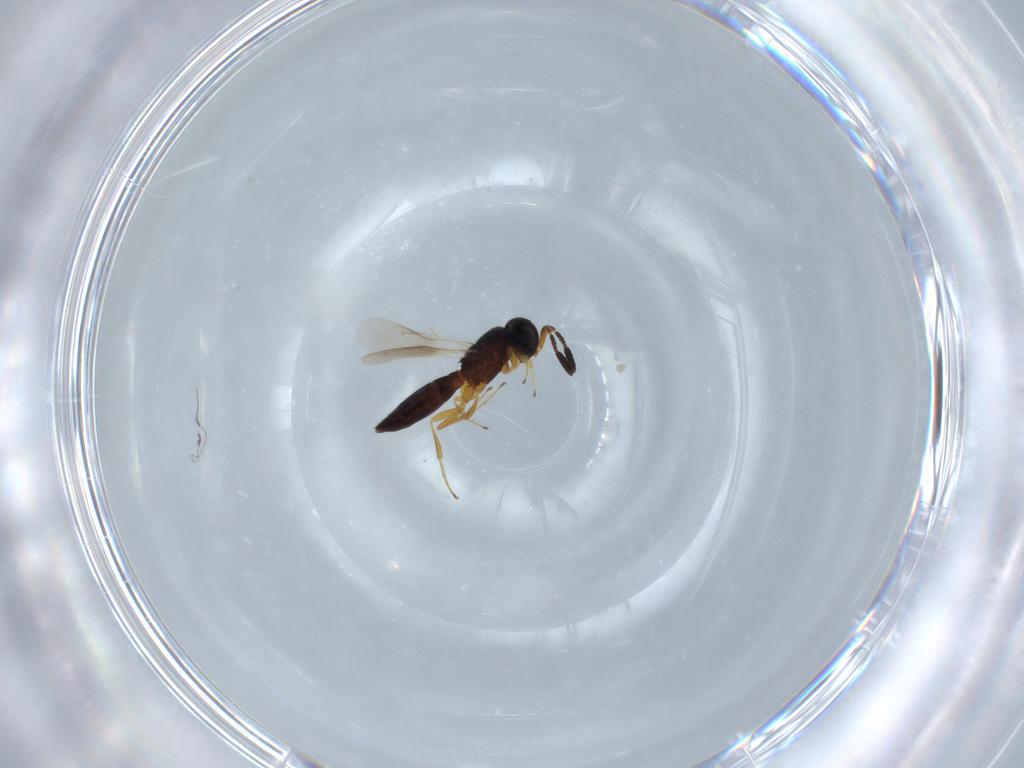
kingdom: Animalia
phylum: Arthropoda
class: Insecta
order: Hymenoptera
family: Scelionidae
